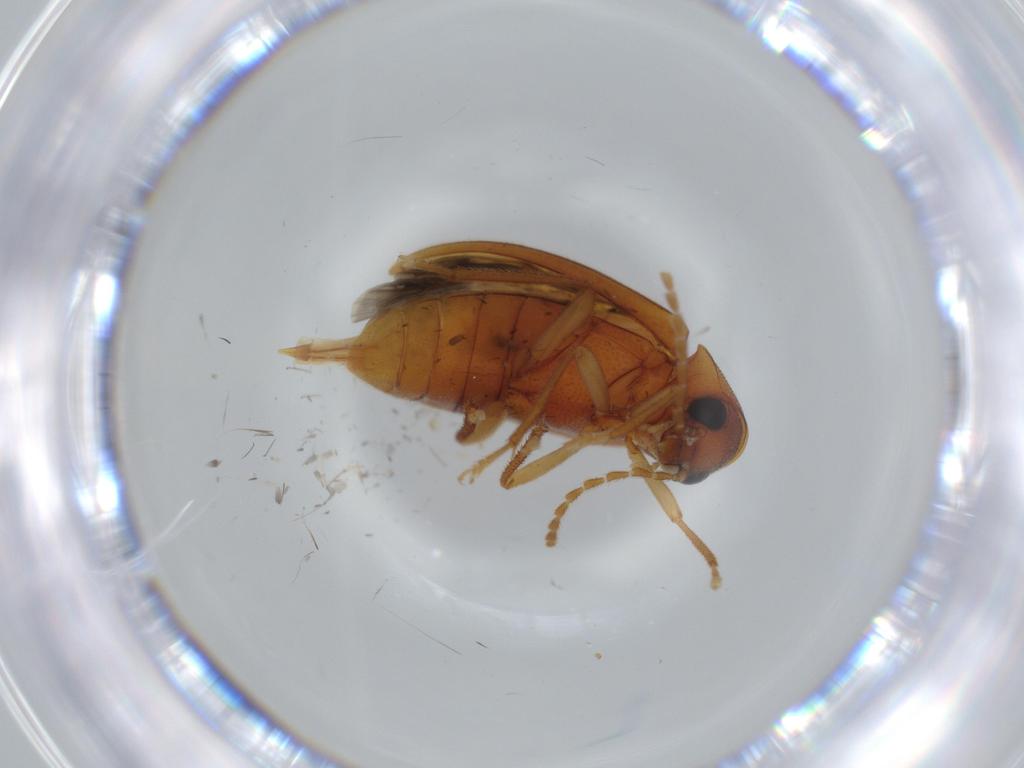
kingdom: Animalia
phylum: Arthropoda
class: Insecta
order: Coleoptera
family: Ptilodactylidae
